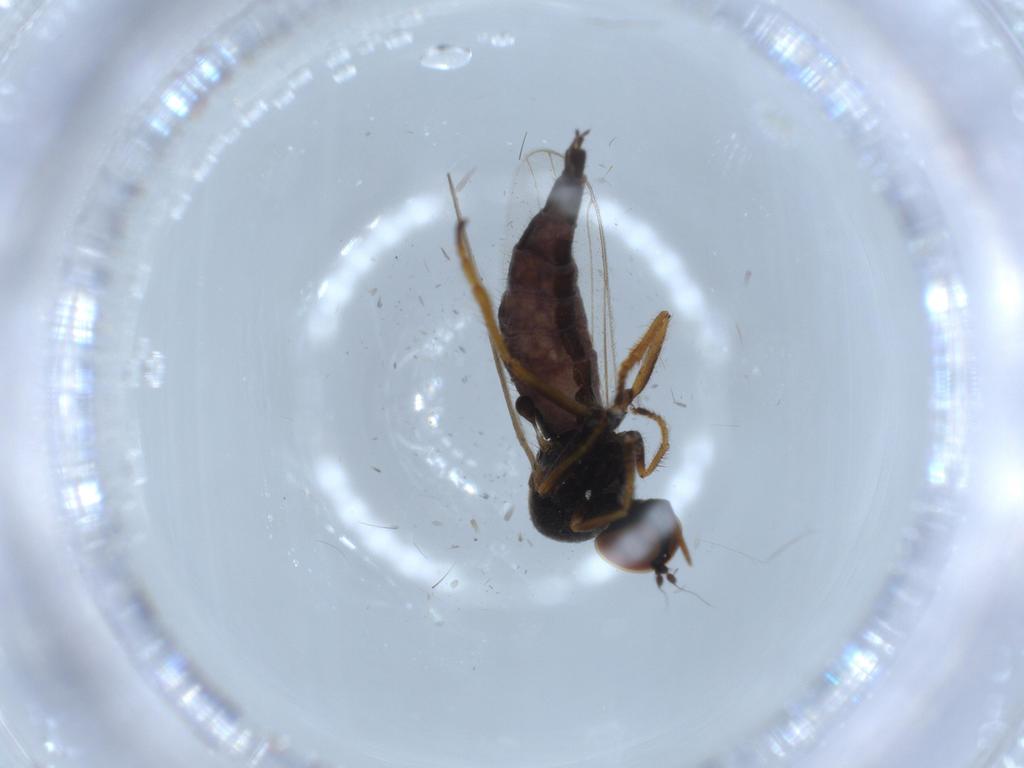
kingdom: Animalia
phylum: Arthropoda
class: Insecta
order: Diptera
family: Cecidomyiidae
